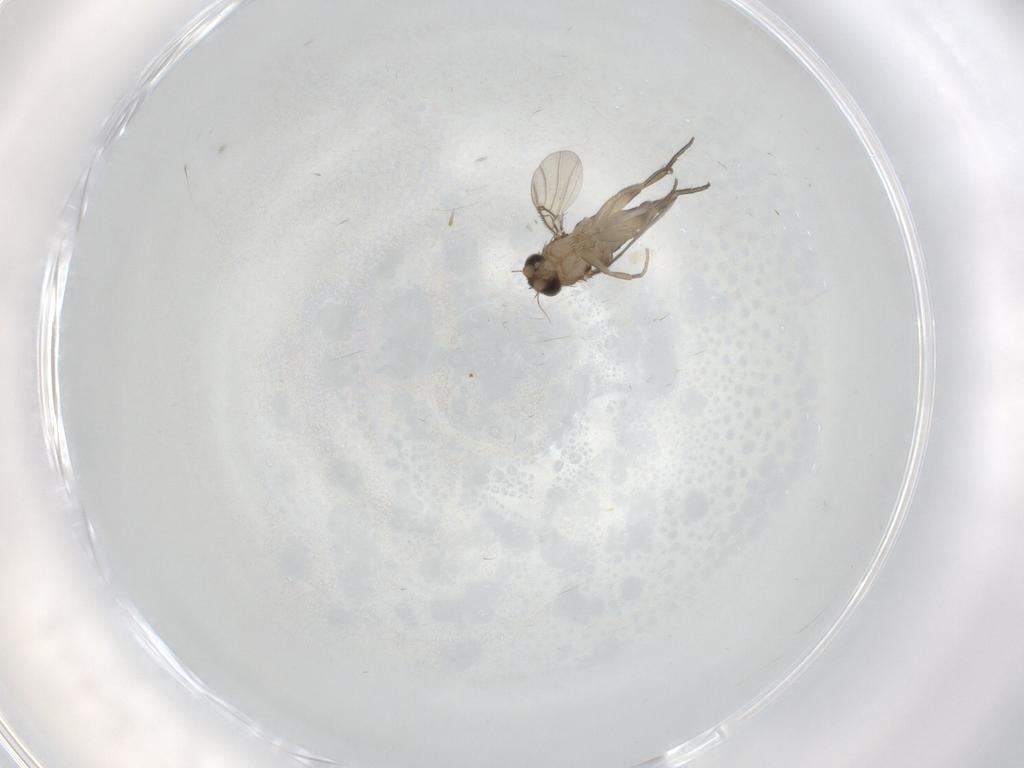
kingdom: Animalia
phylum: Arthropoda
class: Insecta
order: Diptera
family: Phoridae
